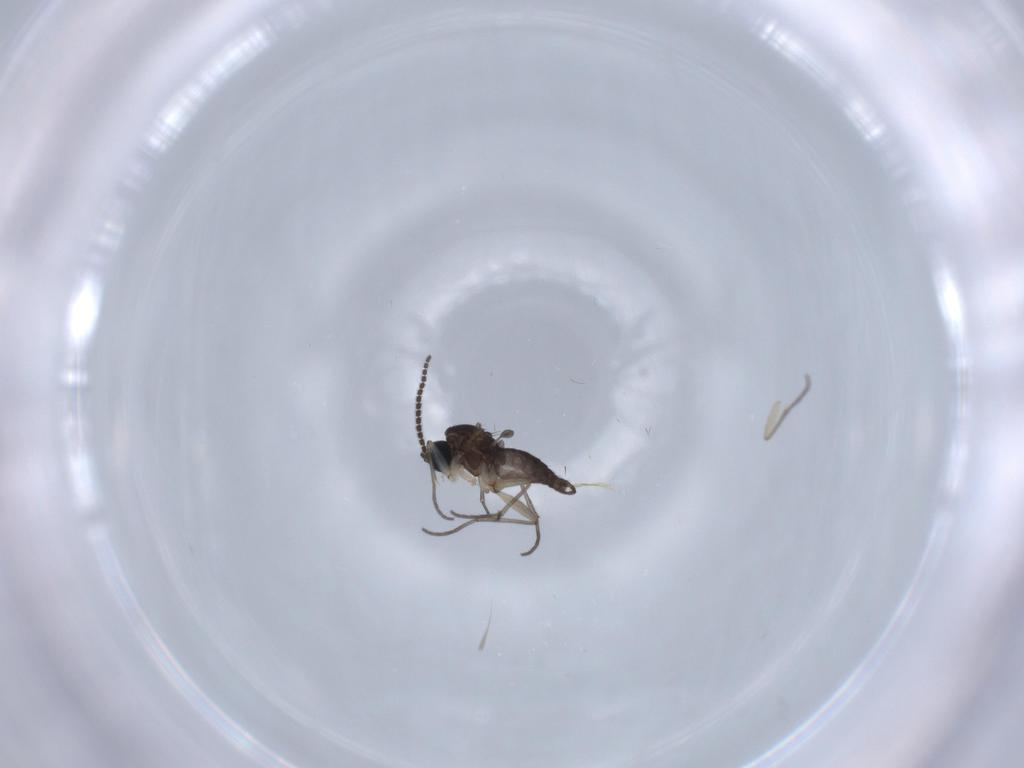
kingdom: Animalia
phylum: Arthropoda
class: Insecta
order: Diptera
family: Sciaridae
